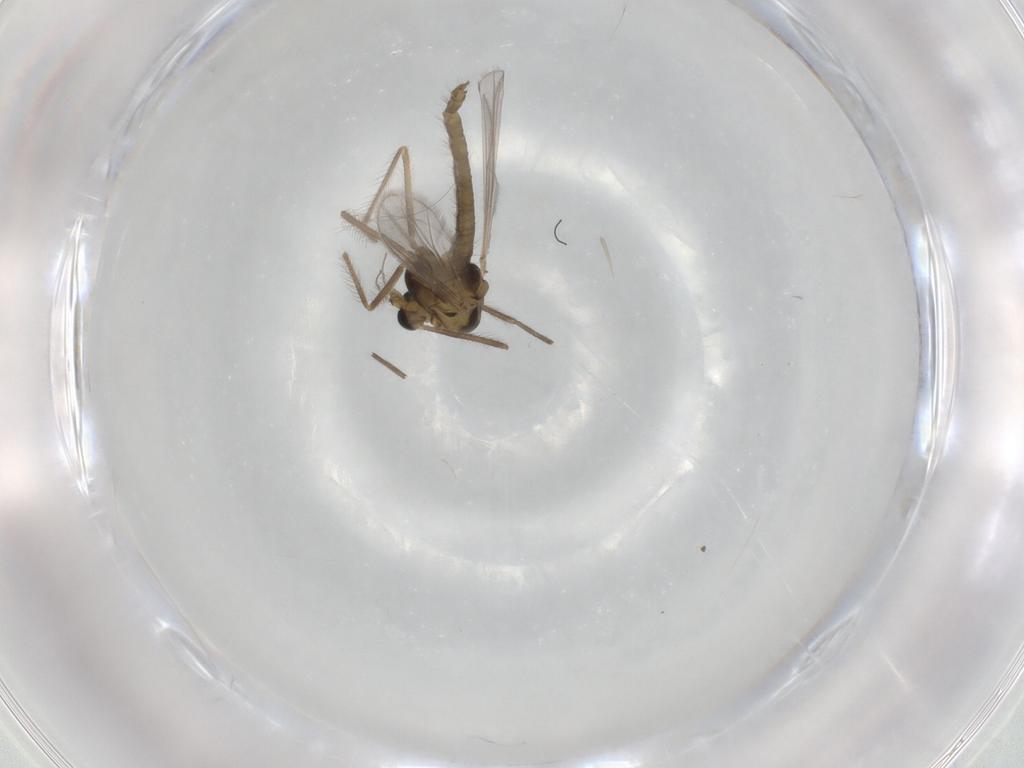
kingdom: Animalia
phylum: Arthropoda
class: Insecta
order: Diptera
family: Chironomidae
